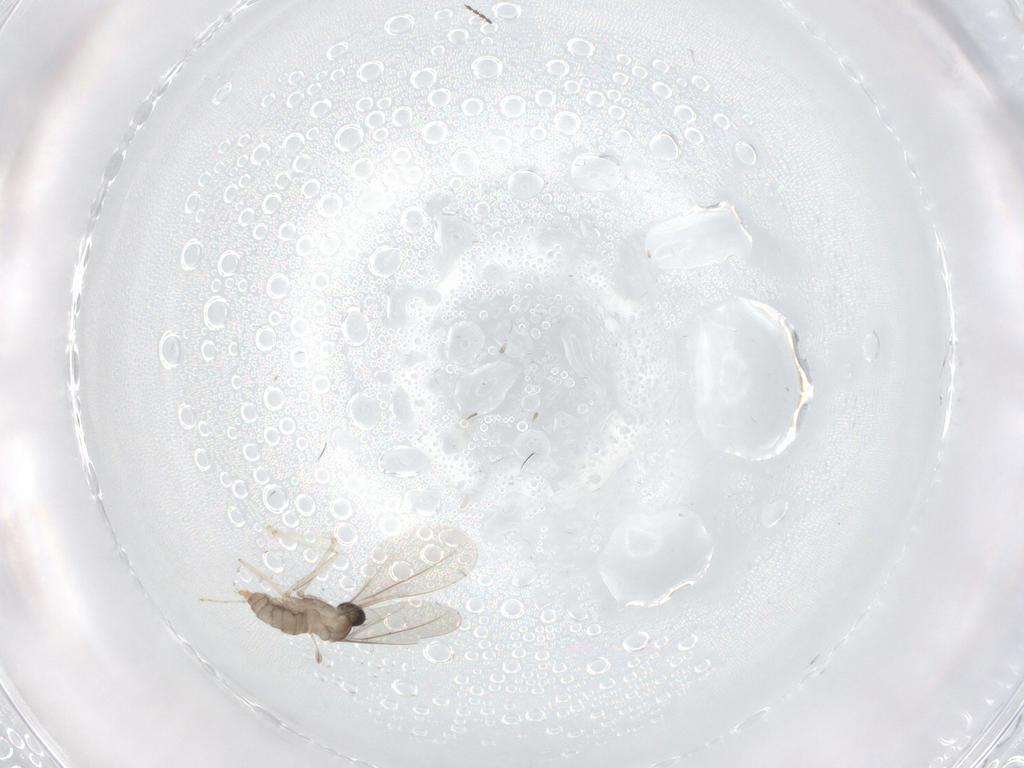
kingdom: Animalia
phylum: Arthropoda
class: Insecta
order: Diptera
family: Cecidomyiidae
